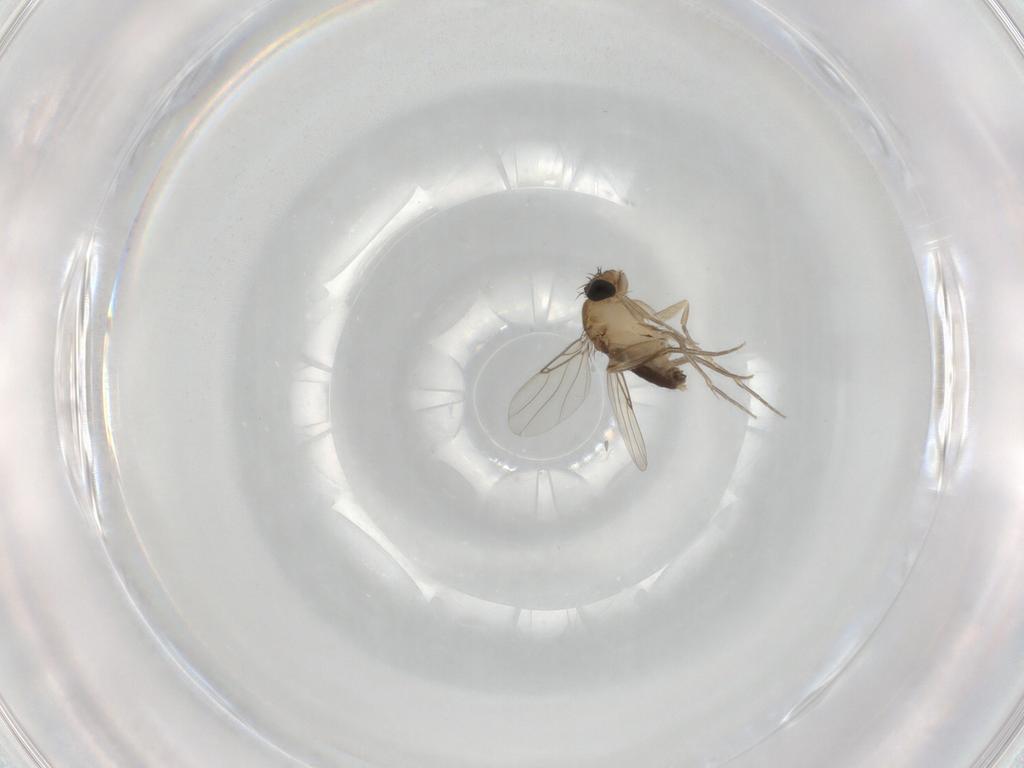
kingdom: Animalia
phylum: Arthropoda
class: Insecta
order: Diptera
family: Phoridae
